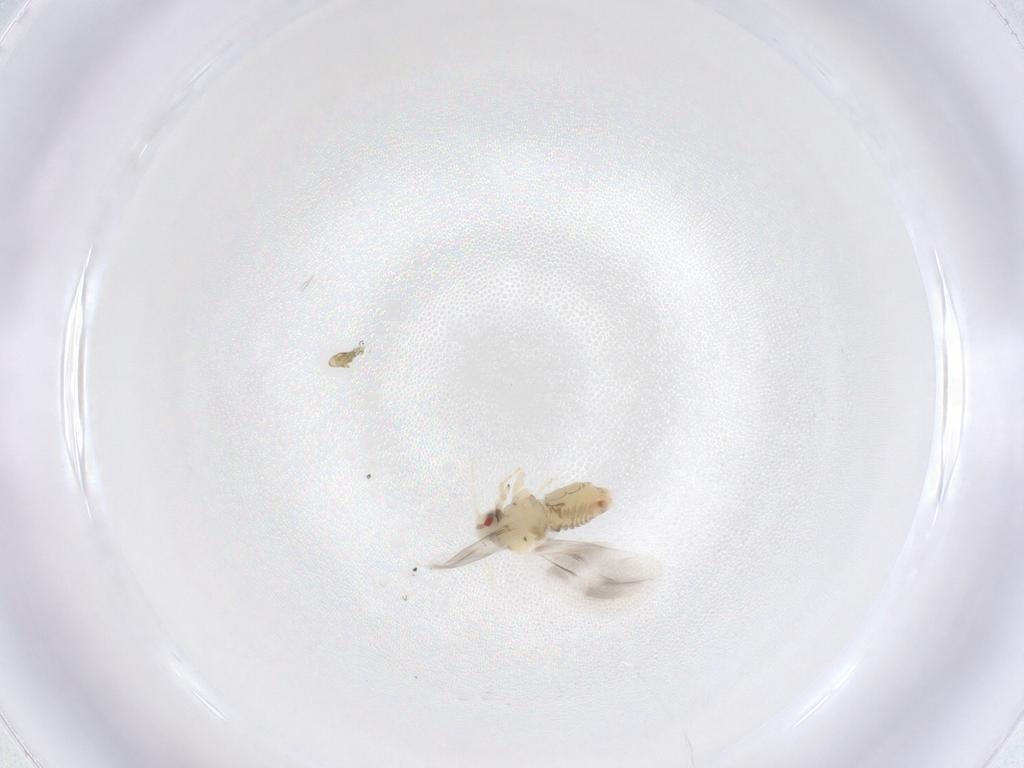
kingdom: Animalia
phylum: Arthropoda
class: Insecta
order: Hemiptera
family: Aleyrodidae
